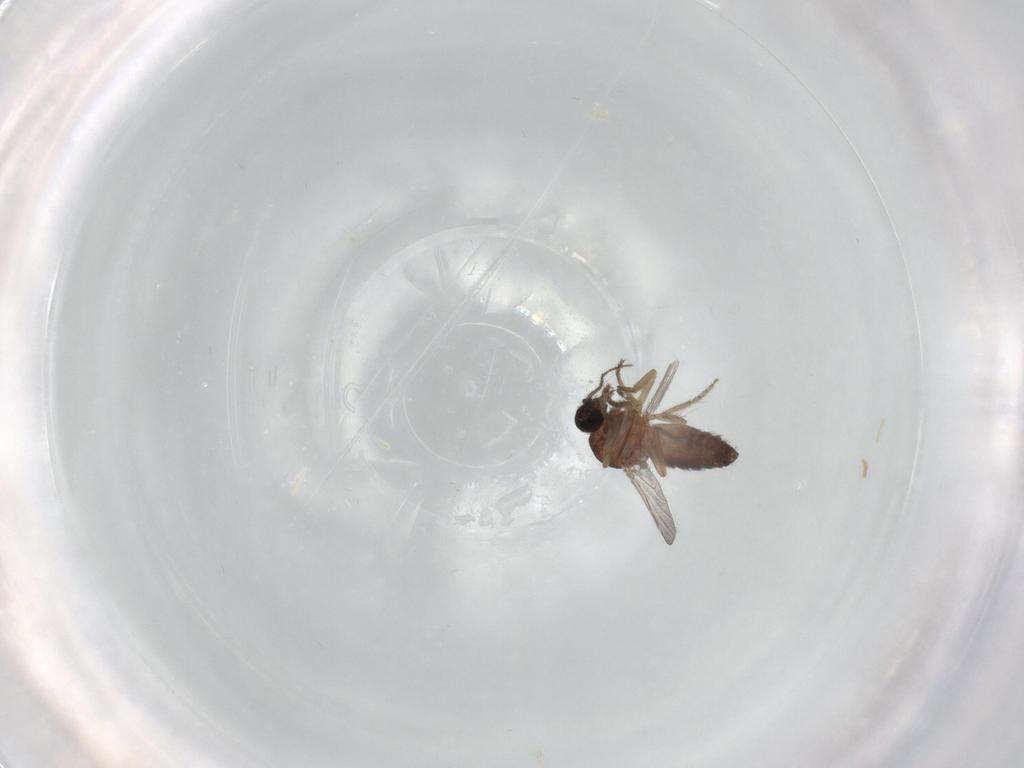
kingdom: Animalia
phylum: Arthropoda
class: Insecta
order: Diptera
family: Ceratopogonidae
